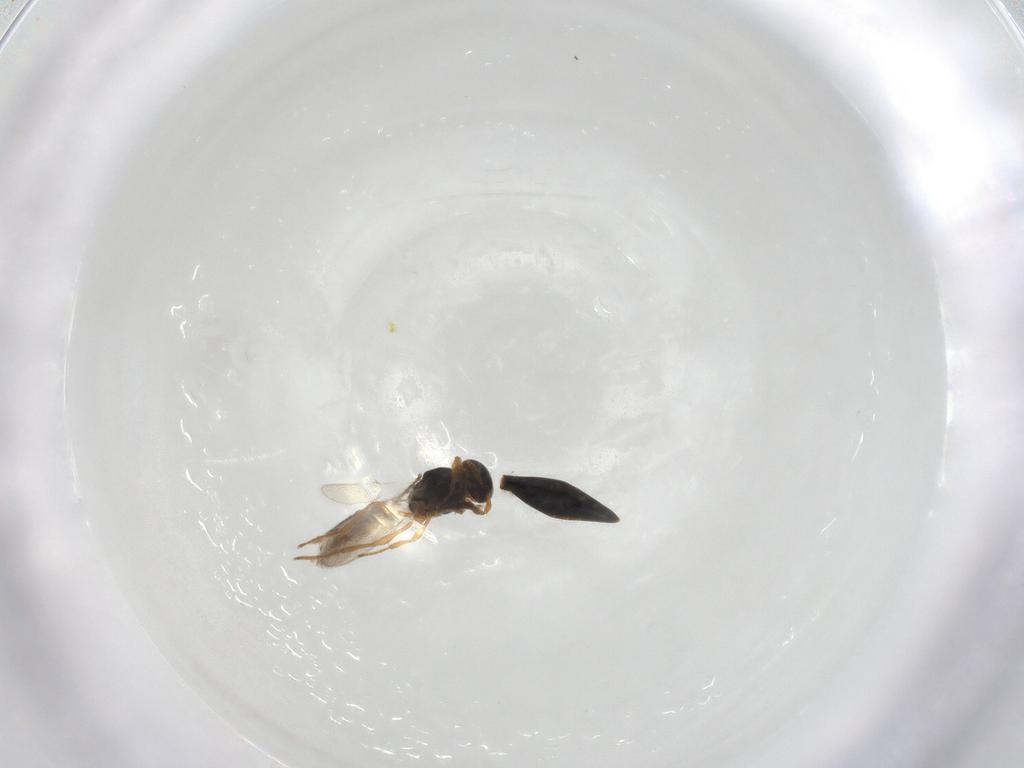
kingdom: Animalia
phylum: Arthropoda
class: Insecta
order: Hymenoptera
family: Platygastridae
